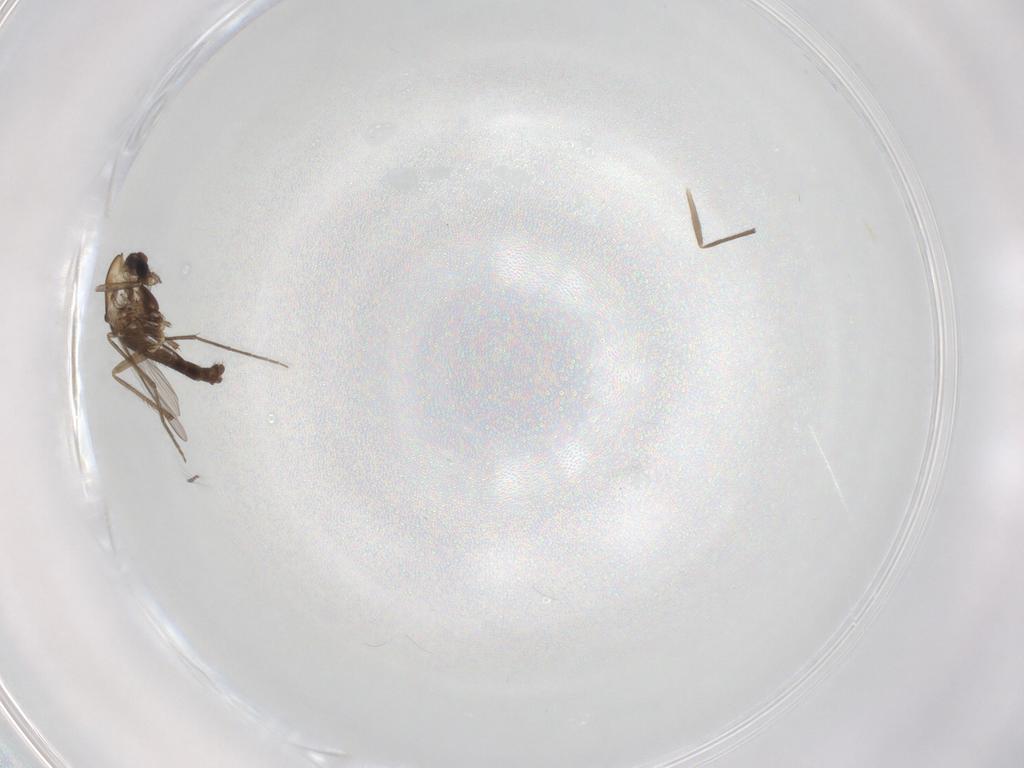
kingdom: Animalia
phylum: Arthropoda
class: Insecta
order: Diptera
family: Chironomidae
